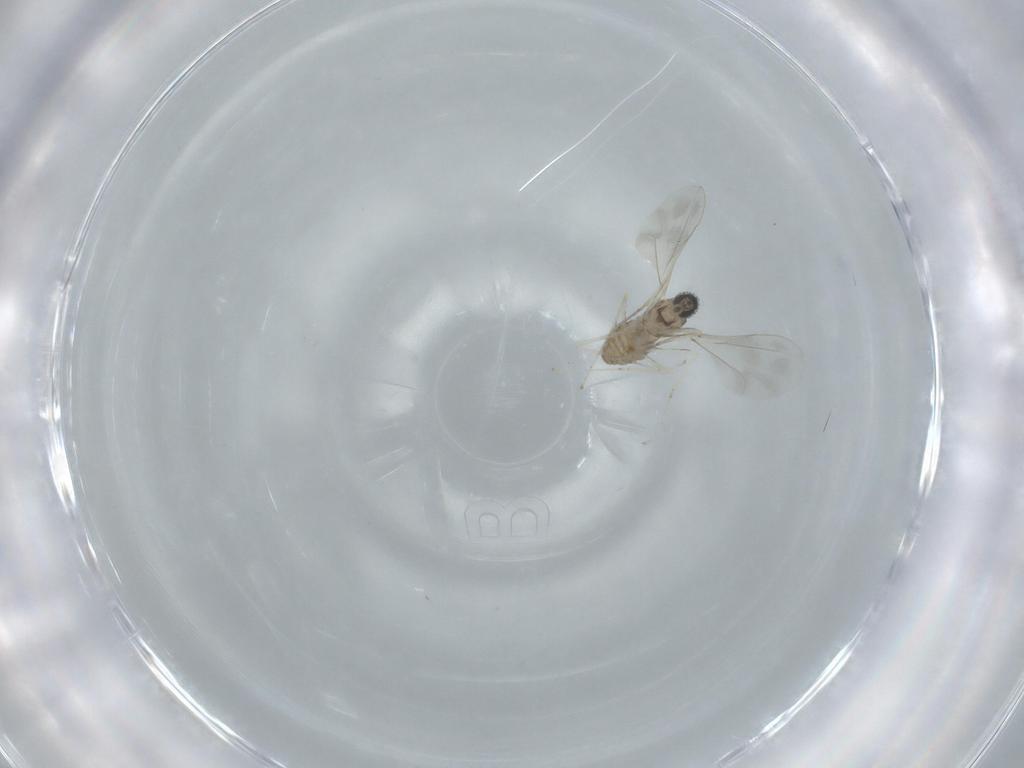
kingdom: Animalia
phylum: Arthropoda
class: Insecta
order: Diptera
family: Cecidomyiidae
